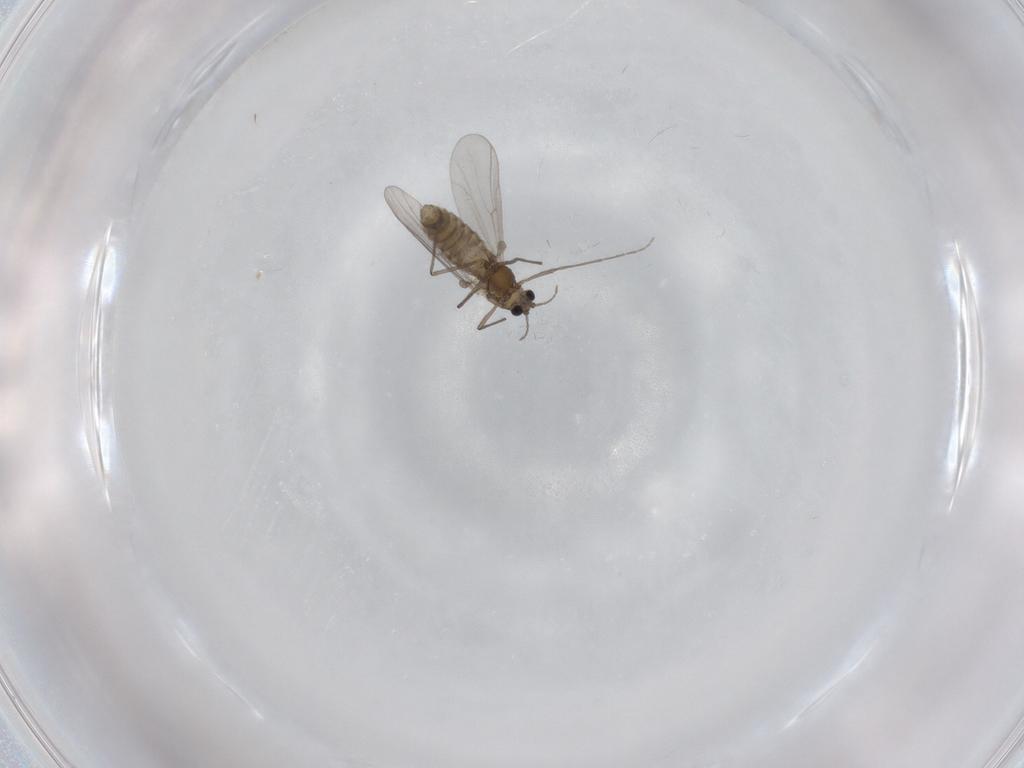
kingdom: Animalia
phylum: Arthropoda
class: Insecta
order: Diptera
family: Chironomidae
